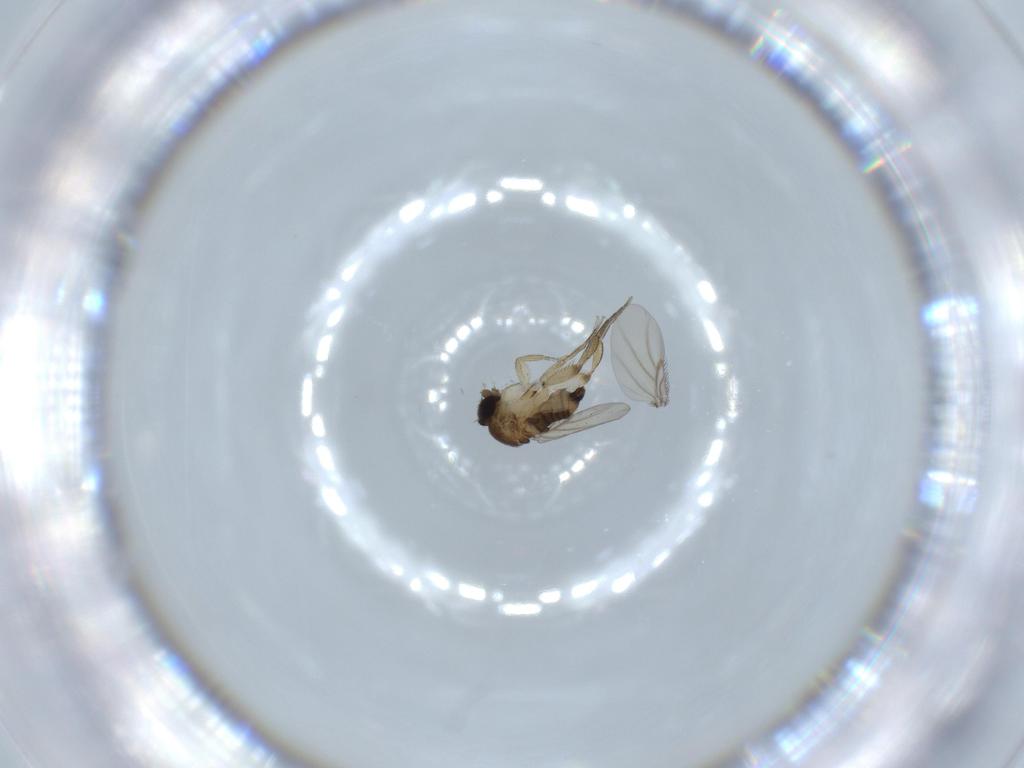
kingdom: Animalia
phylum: Arthropoda
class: Insecta
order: Diptera
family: Phoridae
